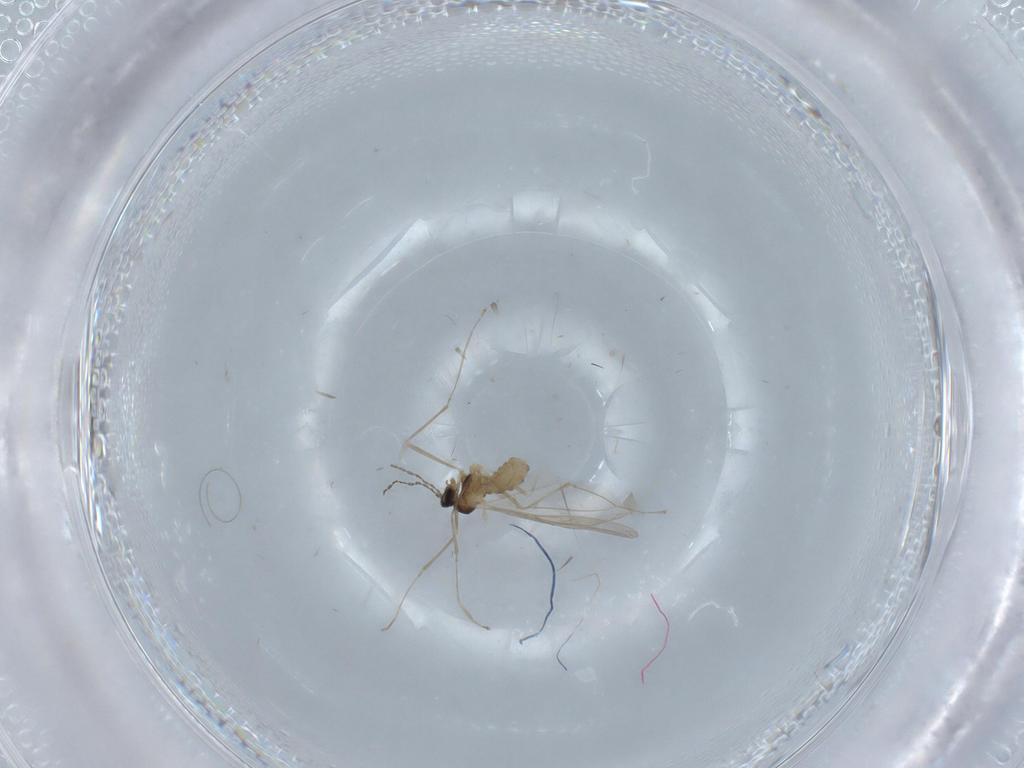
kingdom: Animalia
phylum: Arthropoda
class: Insecta
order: Diptera
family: Cecidomyiidae
